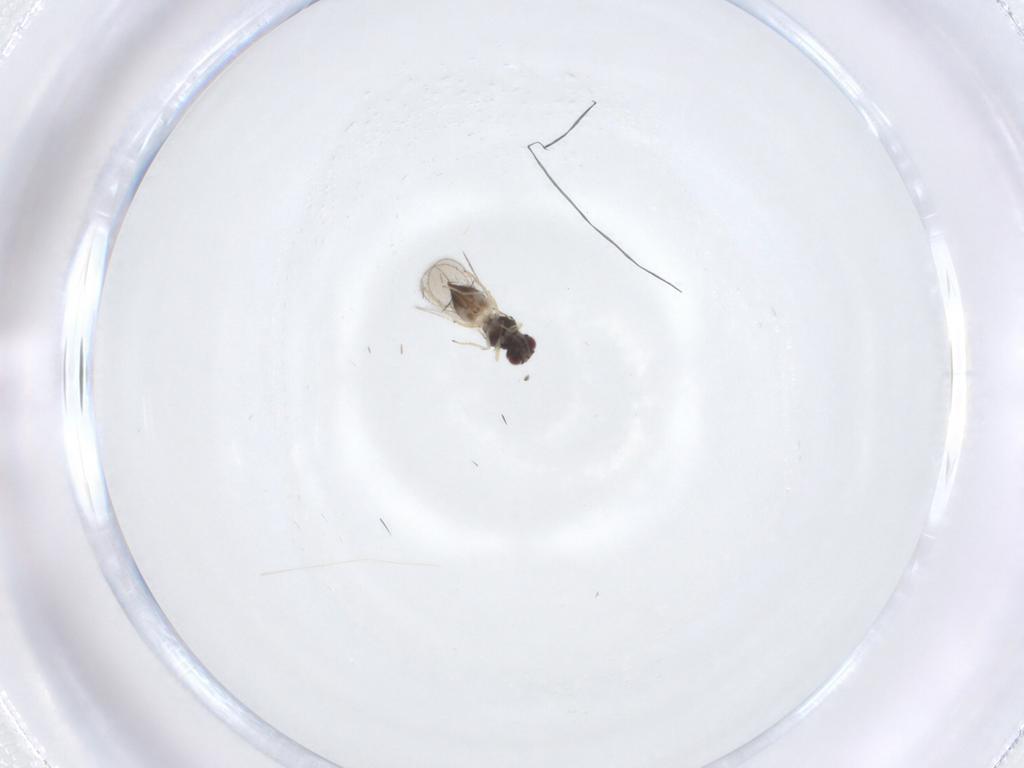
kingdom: Animalia
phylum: Arthropoda
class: Insecta
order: Hymenoptera
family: Eulophidae
